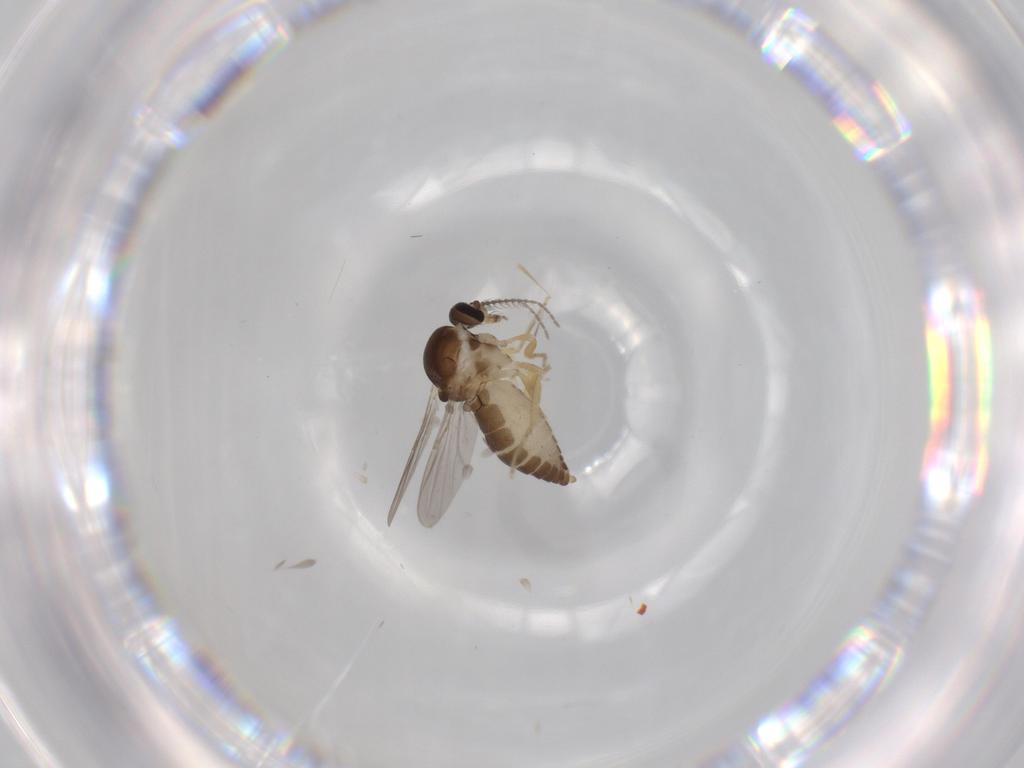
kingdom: Animalia
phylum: Arthropoda
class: Insecta
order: Diptera
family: Ceratopogonidae
